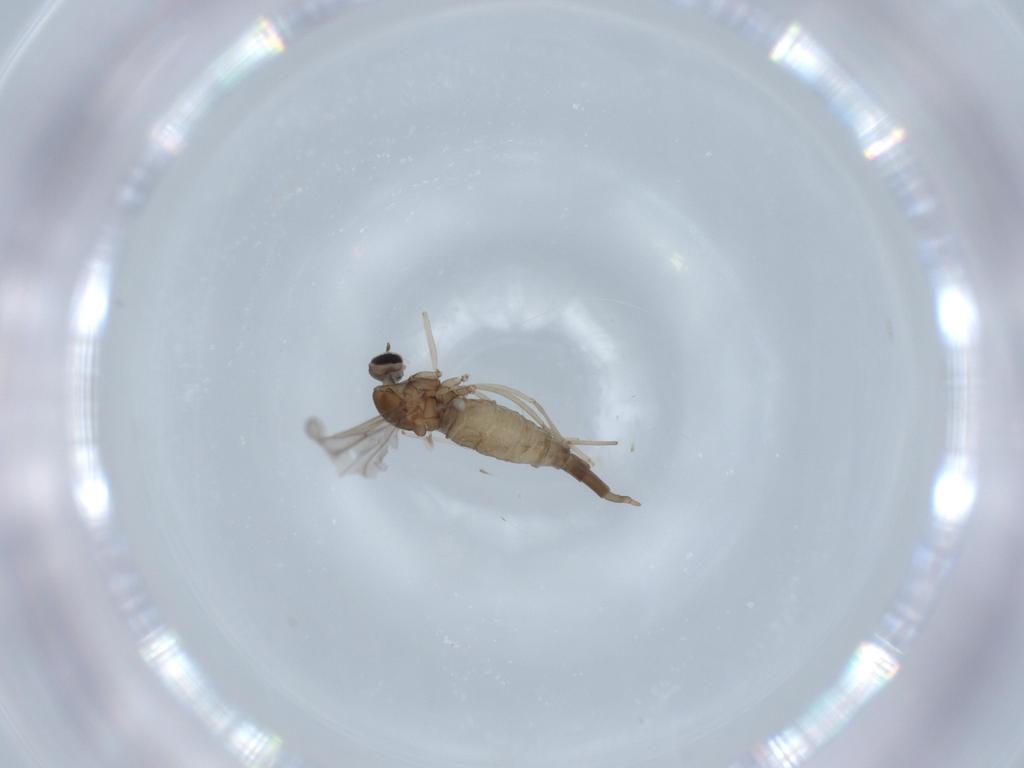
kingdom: Animalia
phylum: Arthropoda
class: Insecta
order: Diptera
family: Cecidomyiidae
